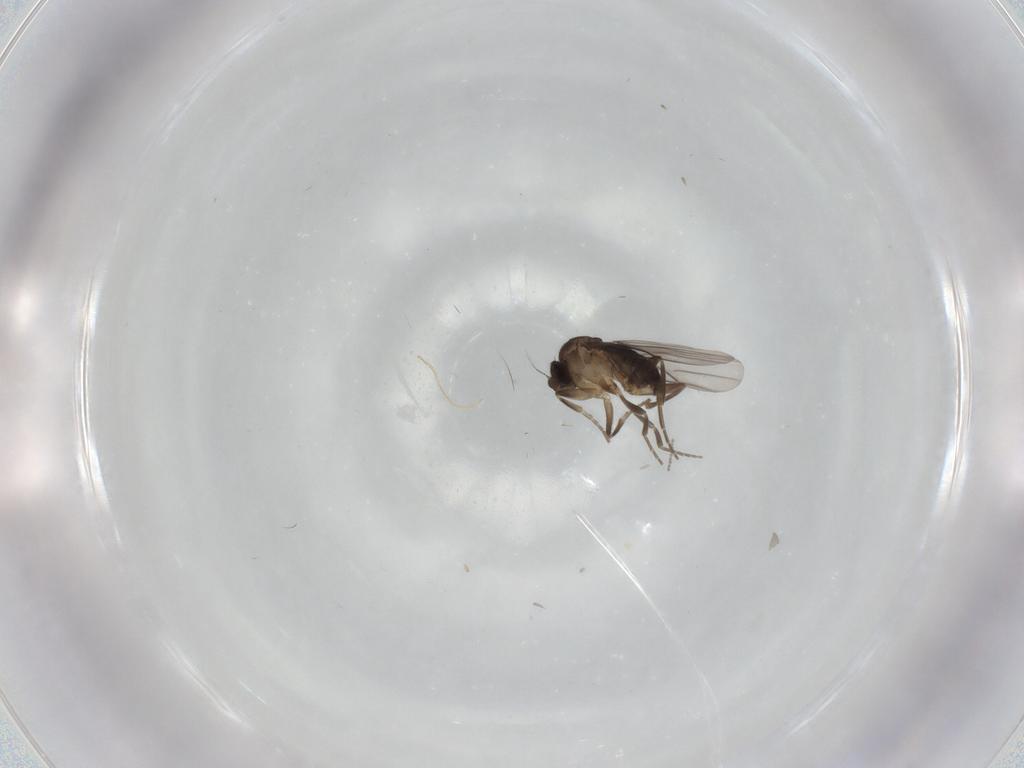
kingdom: Animalia
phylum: Arthropoda
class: Insecta
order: Diptera
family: Cecidomyiidae
